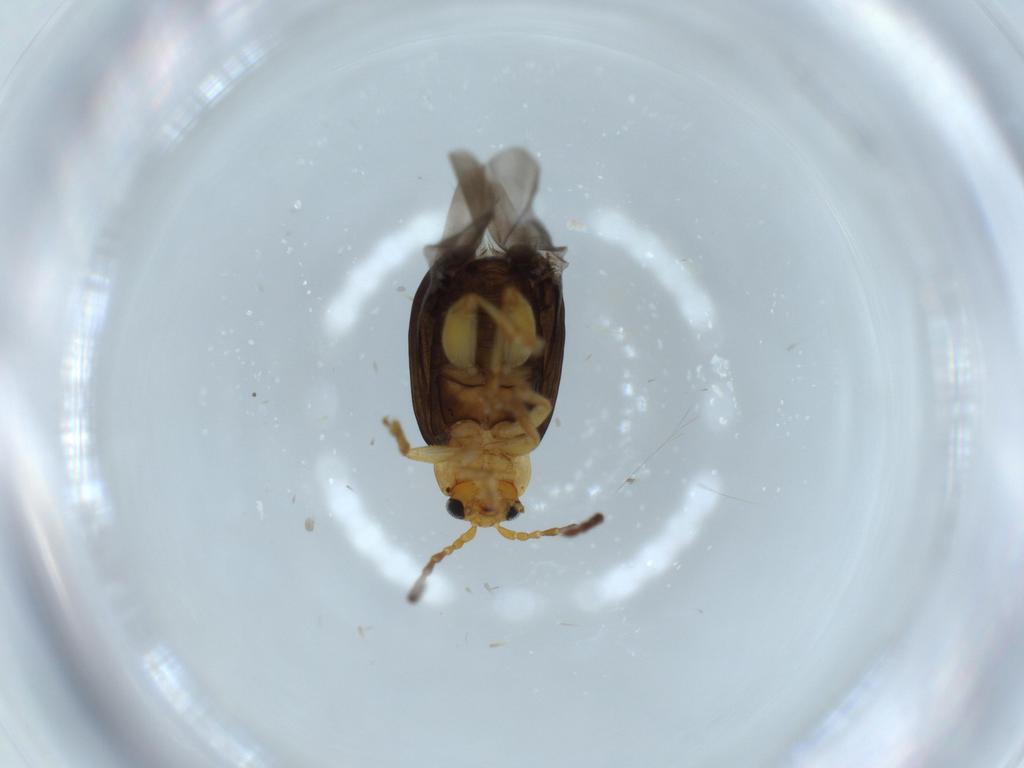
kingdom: Animalia
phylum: Arthropoda
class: Insecta
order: Coleoptera
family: Chrysomelidae
